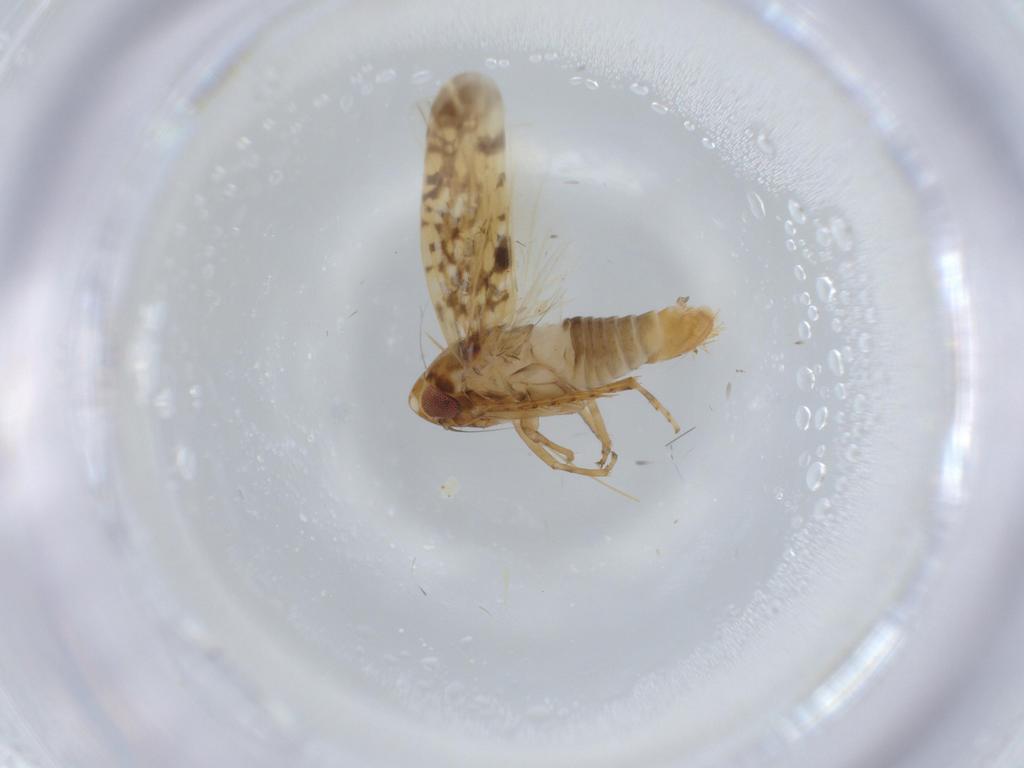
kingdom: Animalia
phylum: Arthropoda
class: Insecta
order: Hemiptera
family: Cicadellidae
